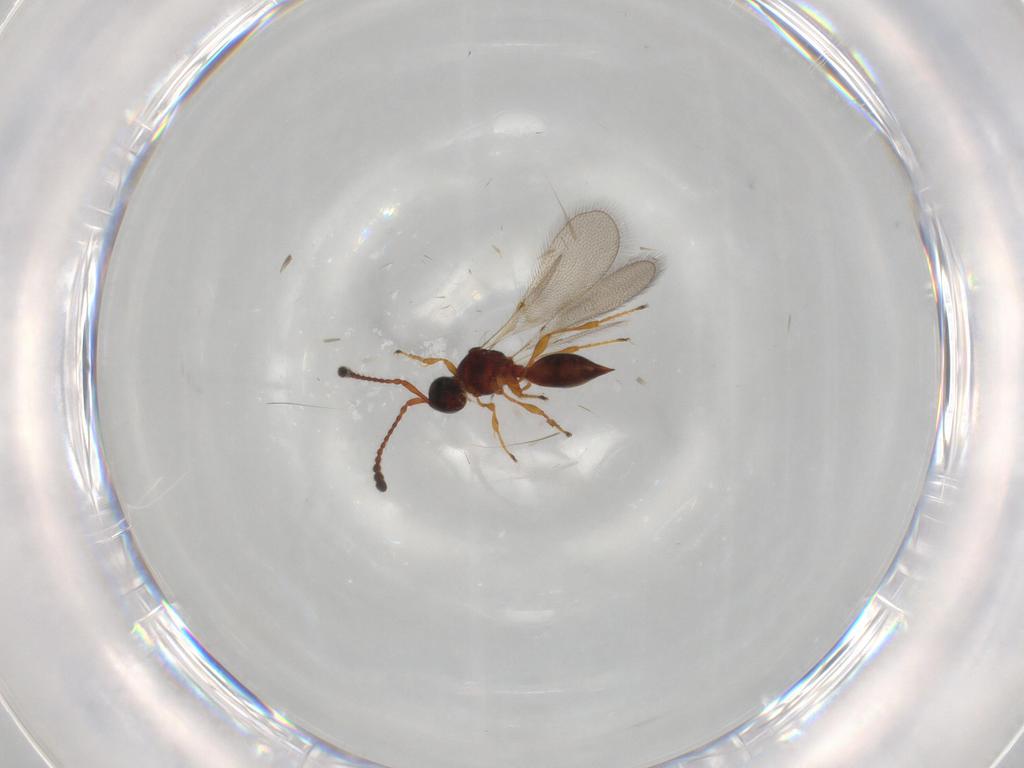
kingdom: Animalia
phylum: Arthropoda
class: Insecta
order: Hymenoptera
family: Diapriidae
